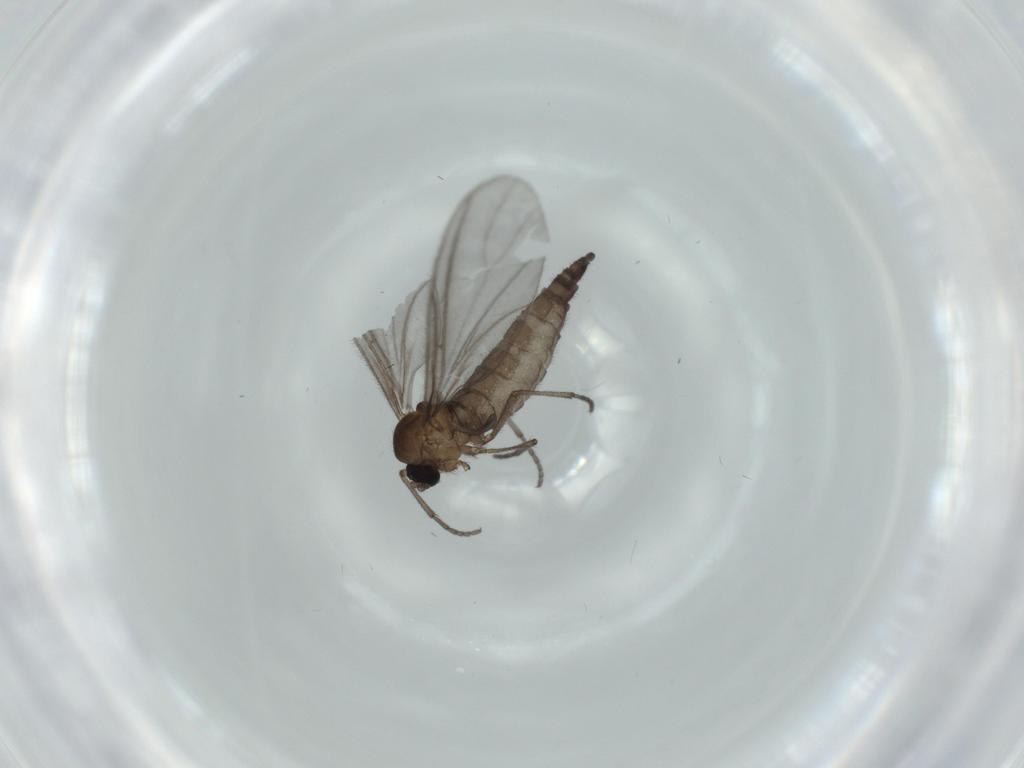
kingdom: Animalia
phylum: Arthropoda
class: Insecta
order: Diptera
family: Sciaridae
